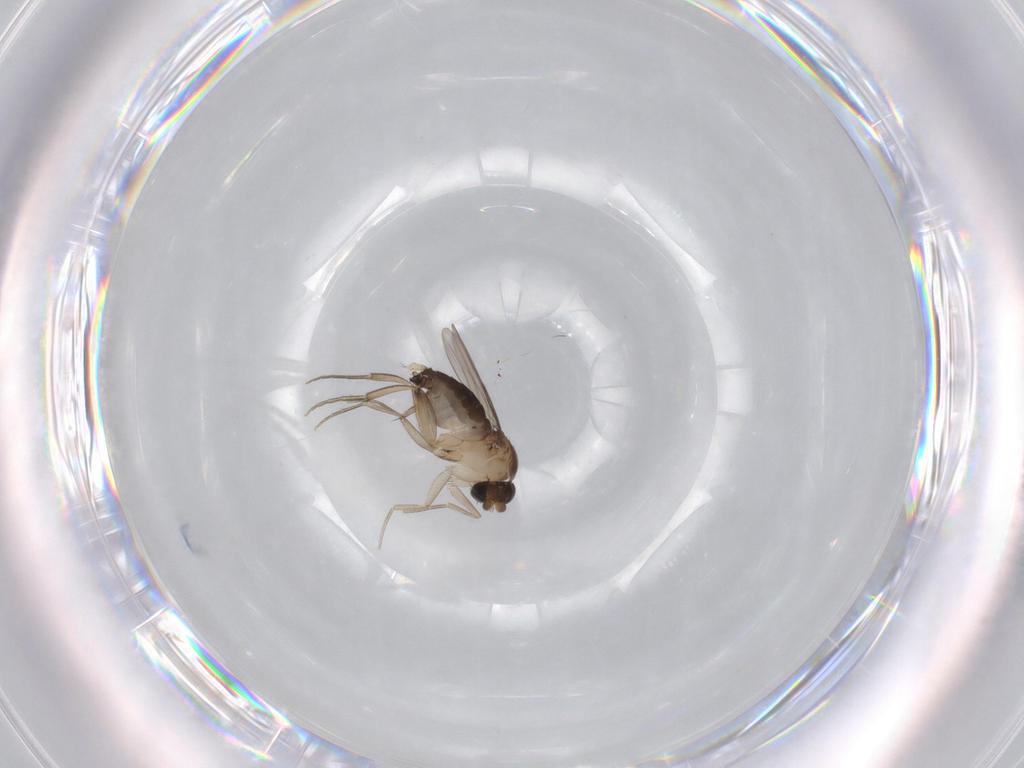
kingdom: Animalia
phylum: Arthropoda
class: Insecta
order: Diptera
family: Phoridae
